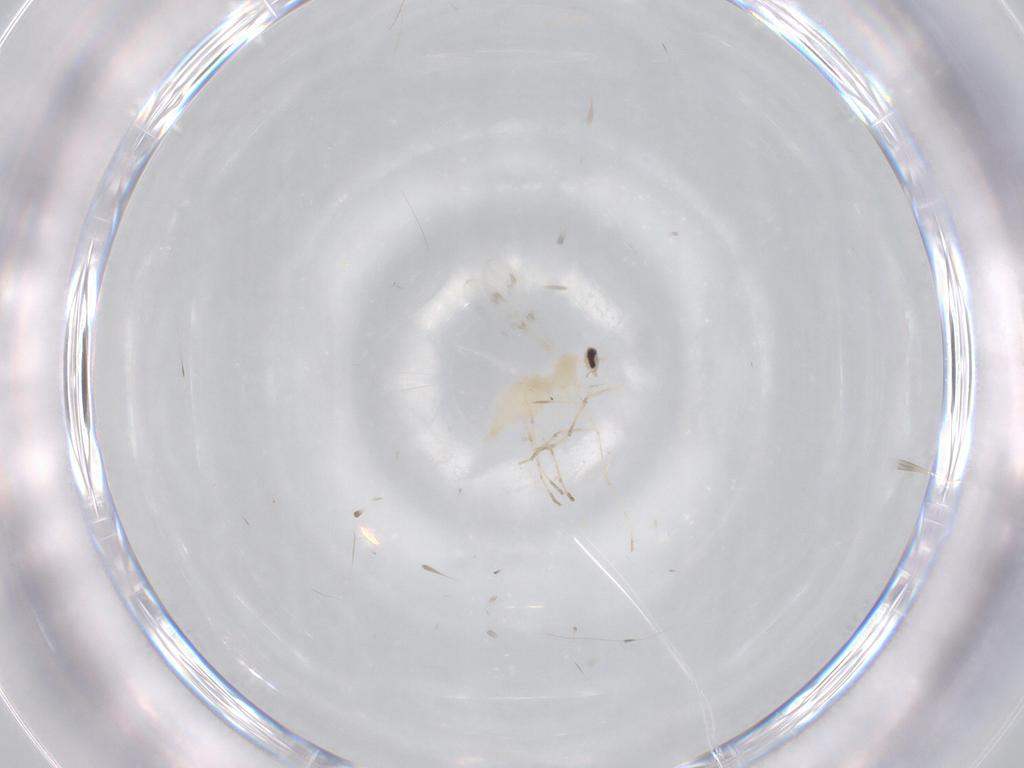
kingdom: Animalia
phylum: Arthropoda
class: Insecta
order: Diptera
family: Cecidomyiidae
